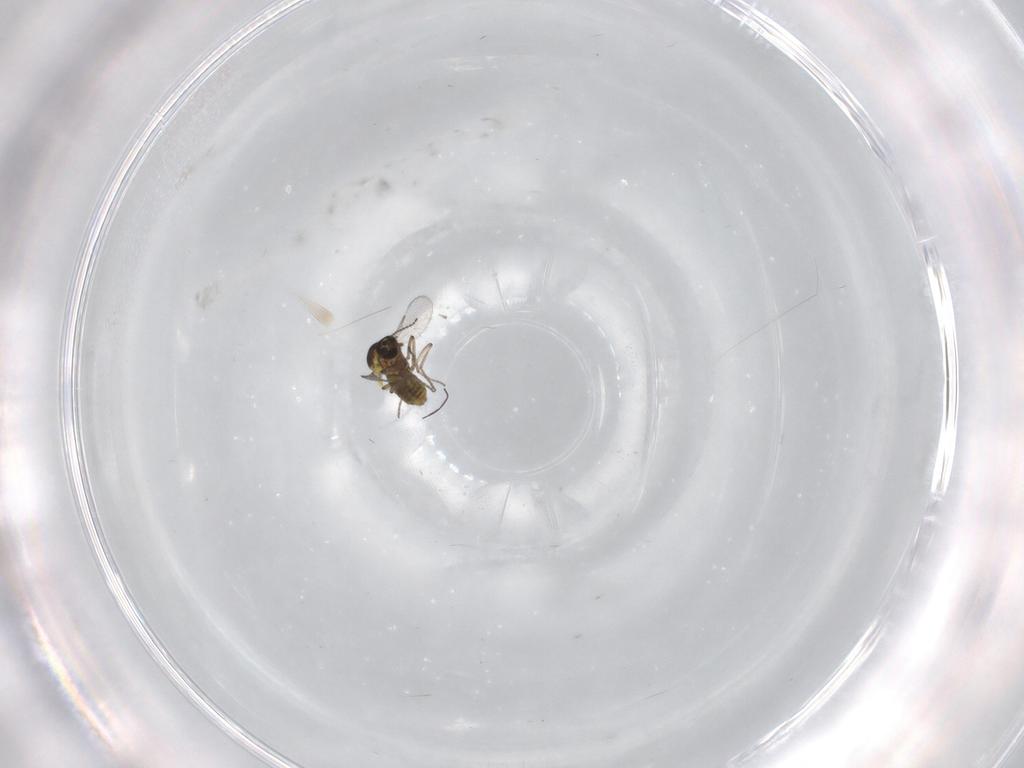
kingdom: Animalia
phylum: Arthropoda
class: Insecta
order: Diptera
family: Ceratopogonidae
